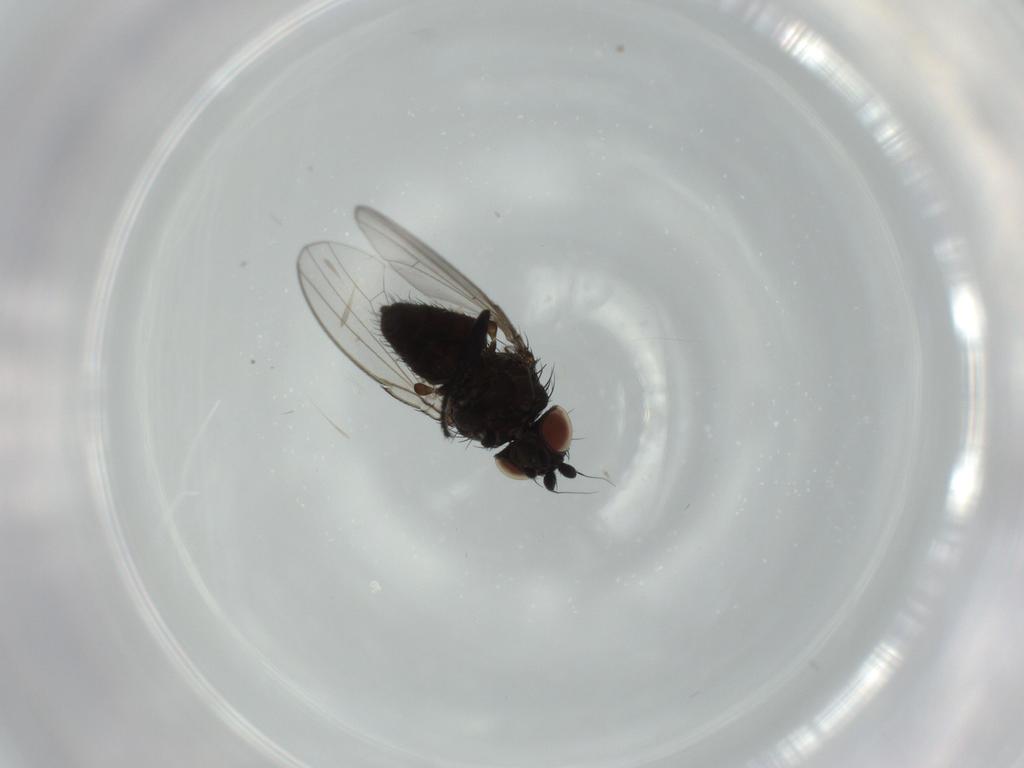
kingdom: Animalia
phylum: Arthropoda
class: Insecta
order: Diptera
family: Milichiidae
